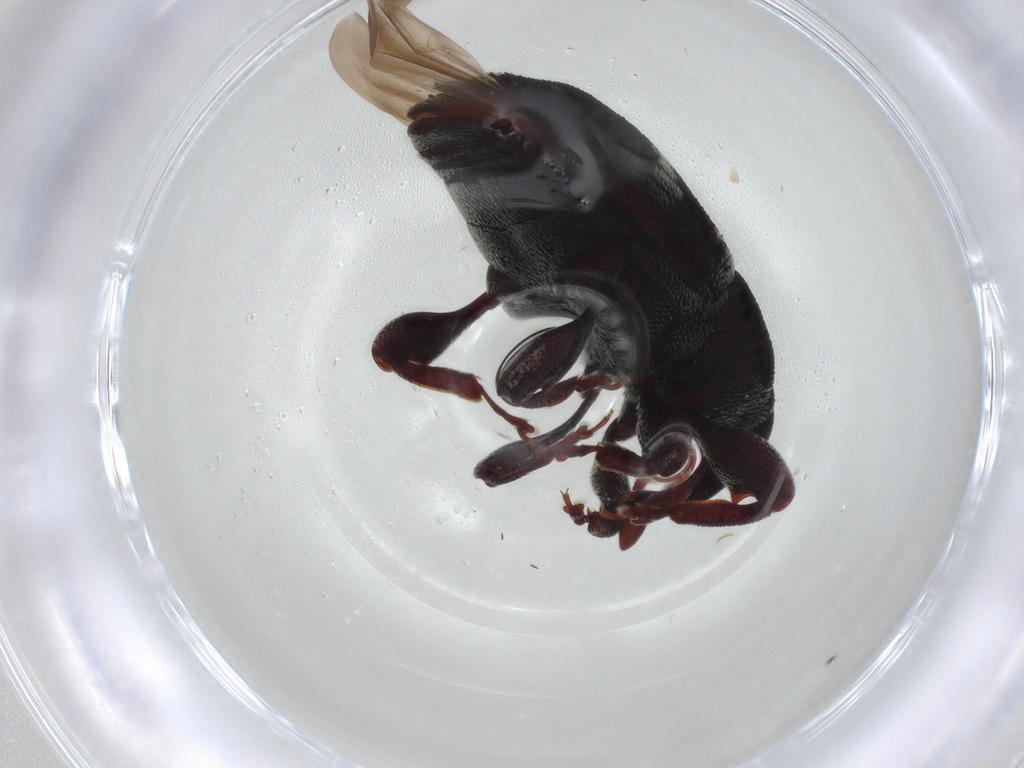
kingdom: Animalia
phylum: Arthropoda
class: Insecta
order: Coleoptera
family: Curculionidae
